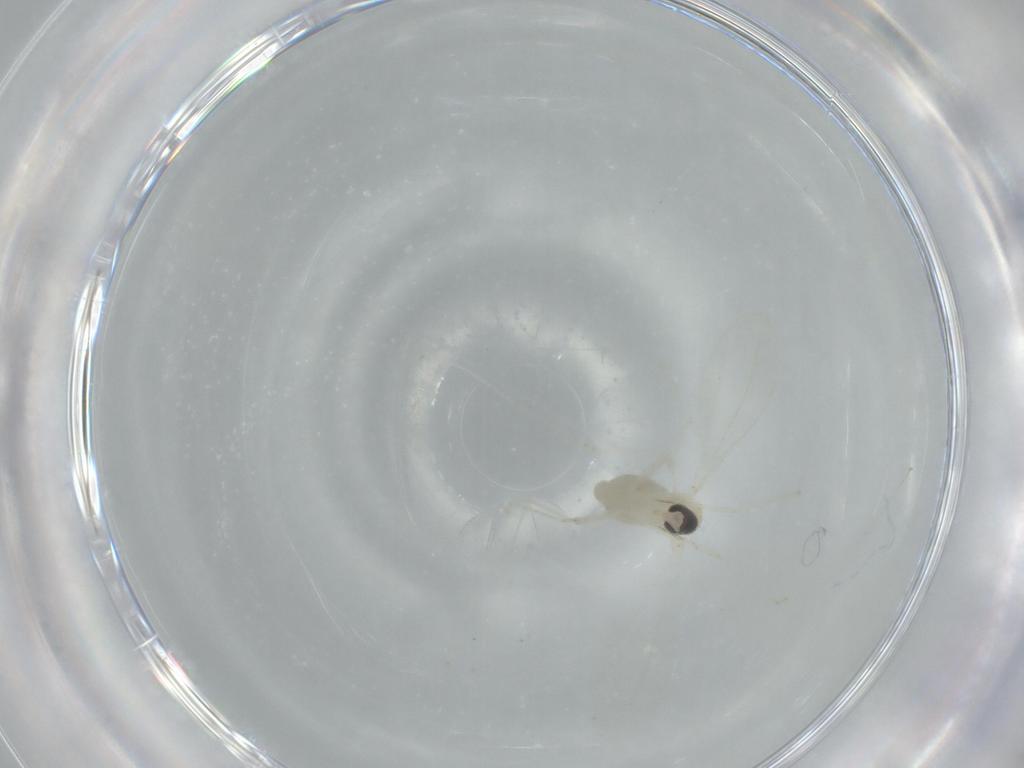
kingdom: Animalia
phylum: Arthropoda
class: Insecta
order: Diptera
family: Cecidomyiidae
